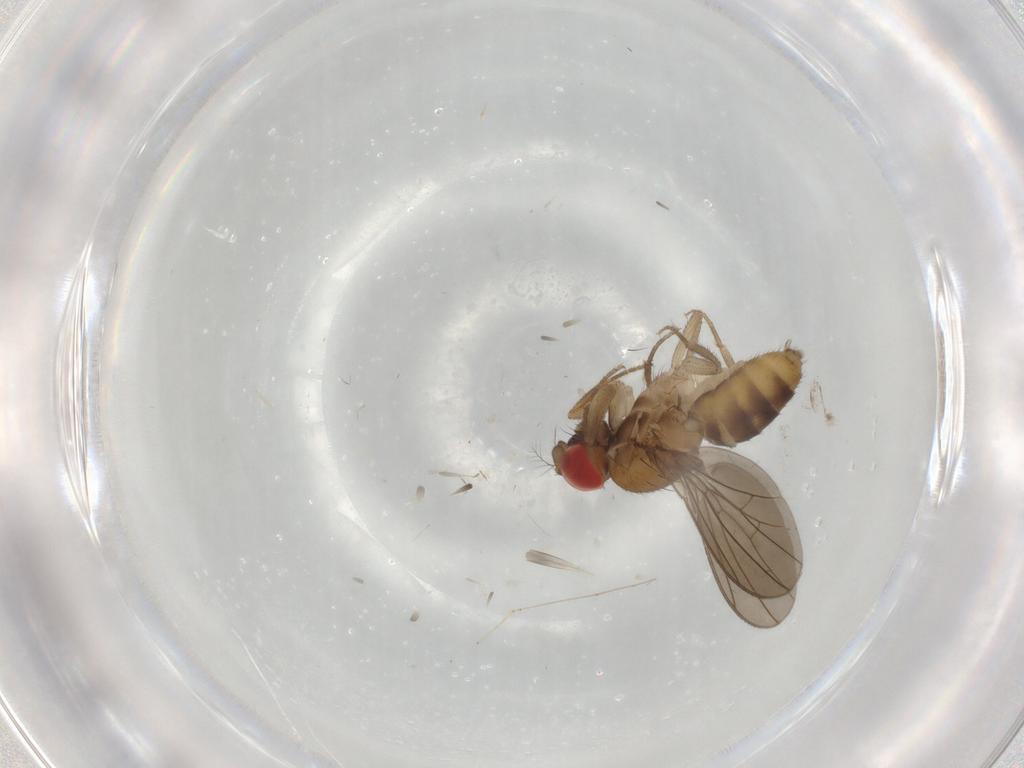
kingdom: Animalia
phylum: Arthropoda
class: Insecta
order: Diptera
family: Drosophilidae
